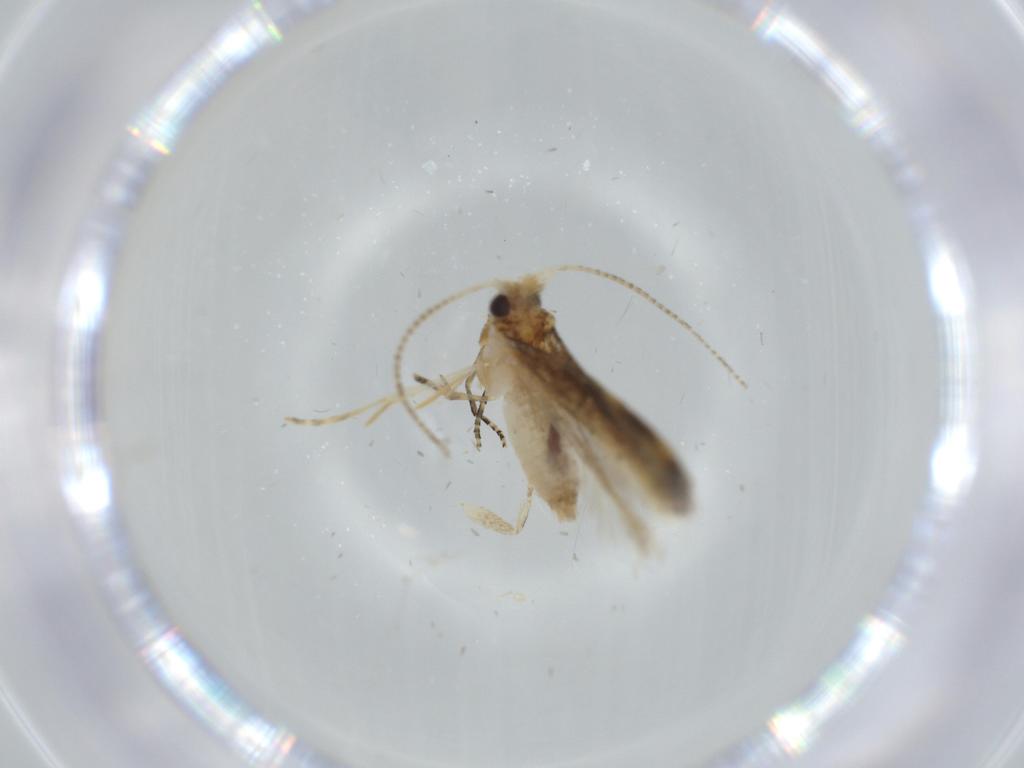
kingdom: Animalia
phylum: Arthropoda
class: Insecta
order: Lepidoptera
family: Bucculatricidae
